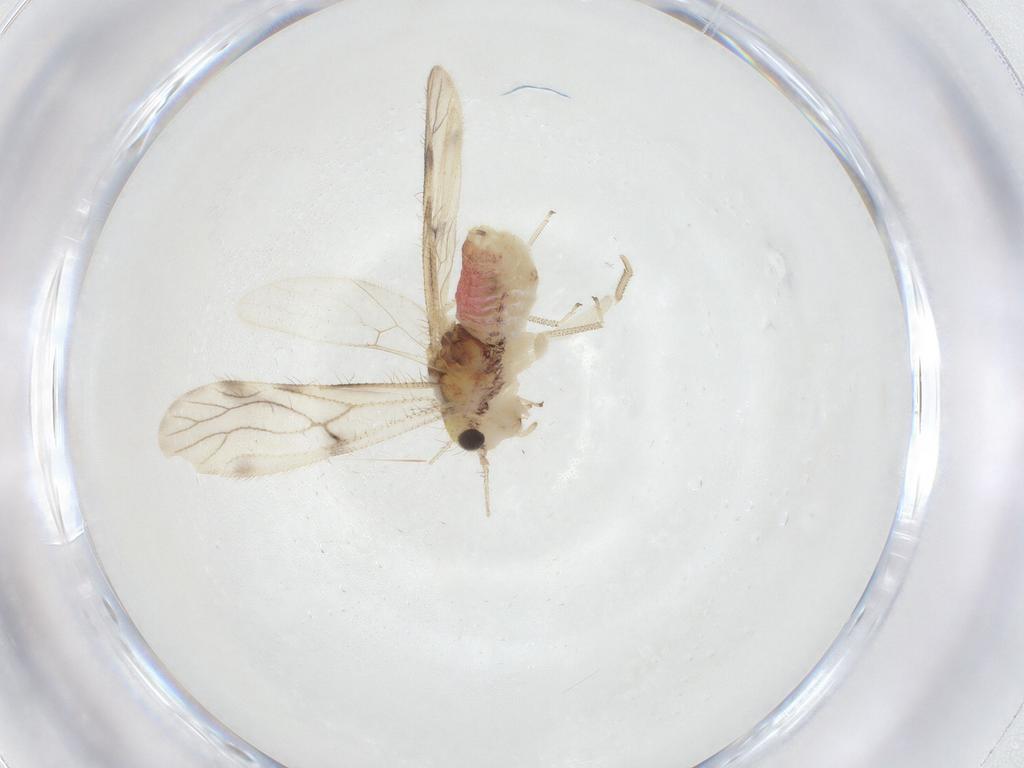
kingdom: Animalia
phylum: Arthropoda
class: Insecta
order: Psocodea
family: Pseudocaeciliidae
